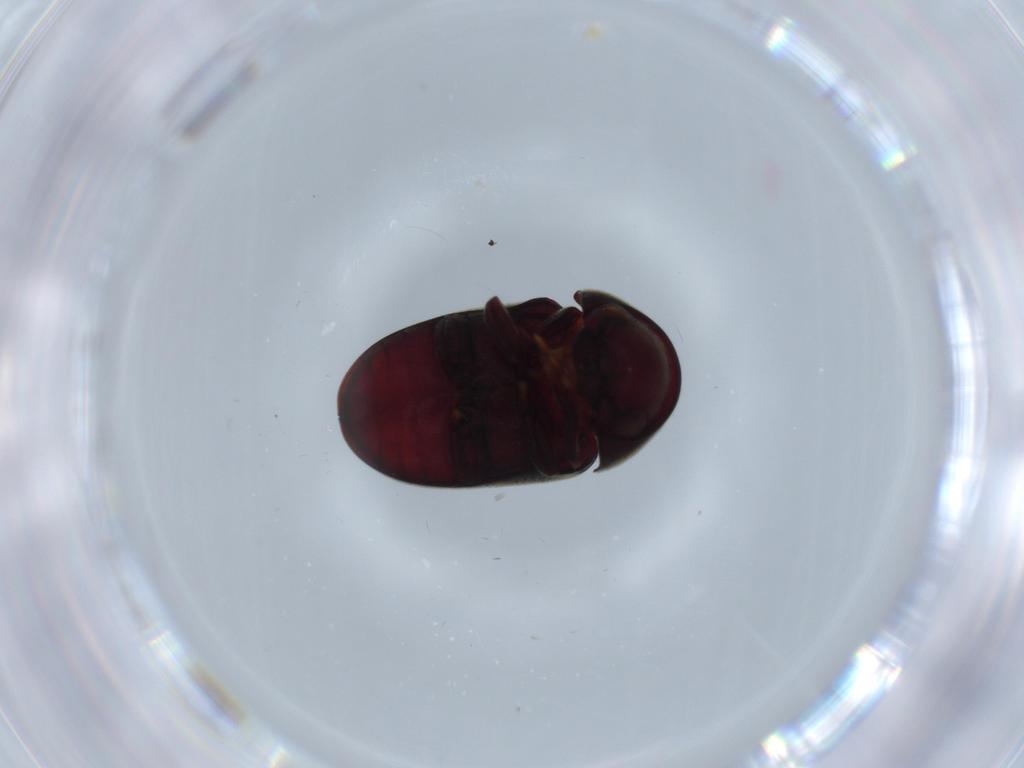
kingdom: Animalia
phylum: Arthropoda
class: Insecta
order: Coleoptera
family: Ptinidae
